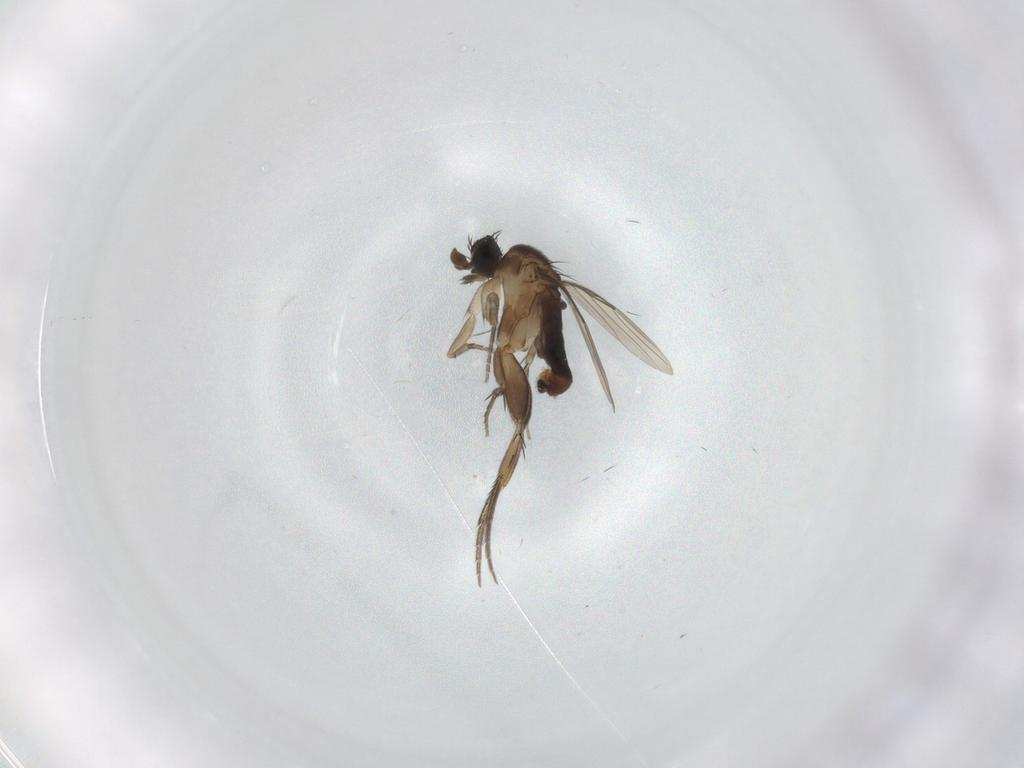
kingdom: Animalia
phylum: Arthropoda
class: Insecta
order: Diptera
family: Phoridae
